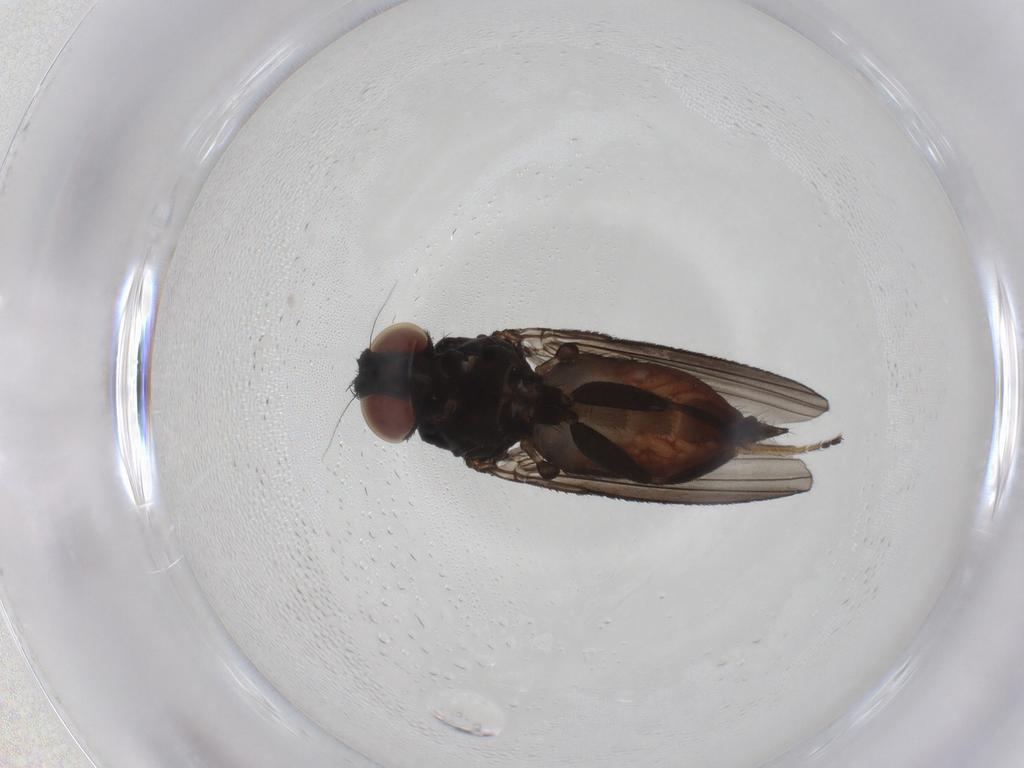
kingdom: Animalia
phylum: Arthropoda
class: Insecta
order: Diptera
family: Milichiidae
